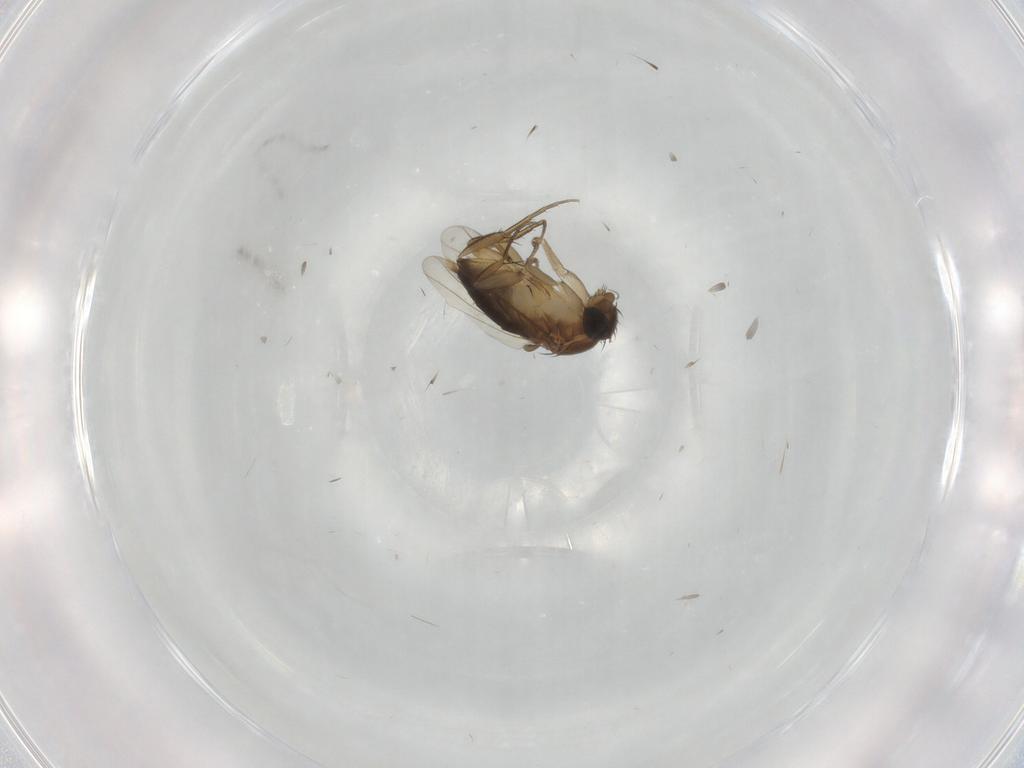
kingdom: Animalia
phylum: Arthropoda
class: Insecta
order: Diptera
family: Phoridae
